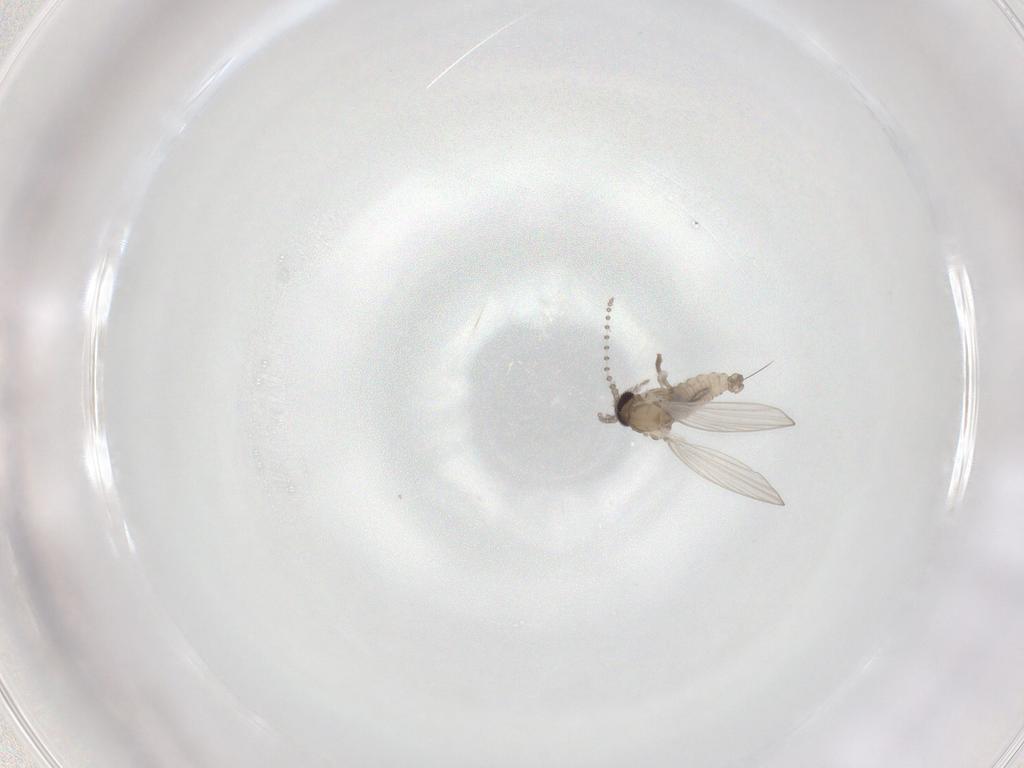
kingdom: Animalia
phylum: Arthropoda
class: Insecta
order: Diptera
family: Psychodidae
